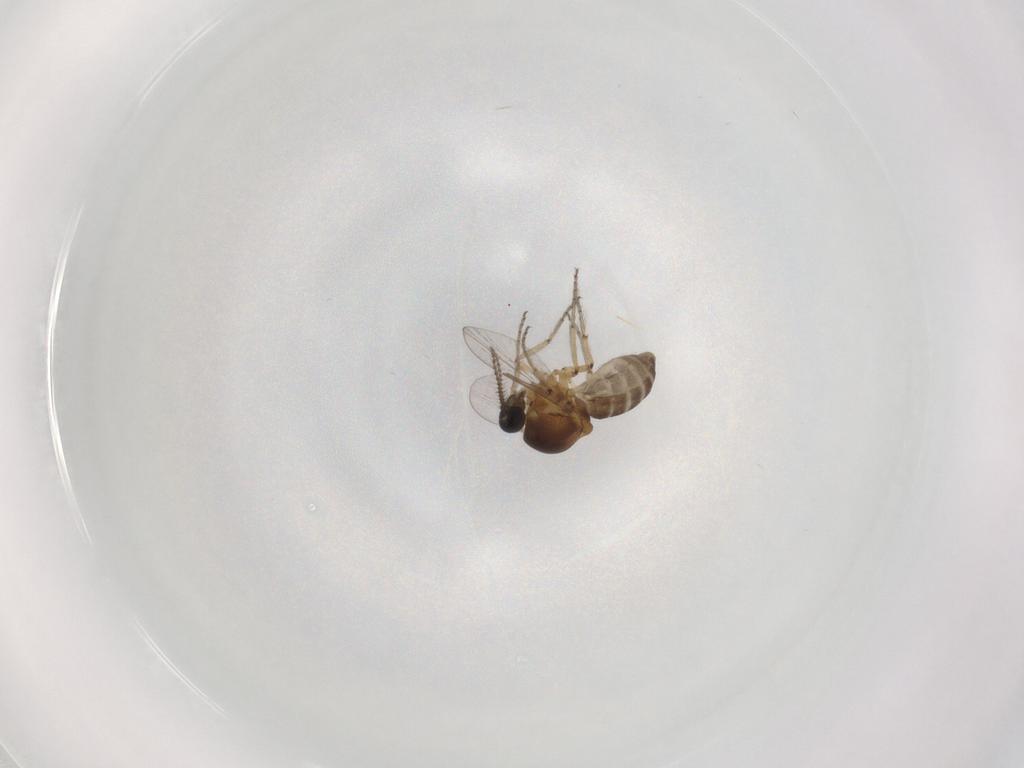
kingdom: Animalia
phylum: Arthropoda
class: Insecta
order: Diptera
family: Ceratopogonidae
